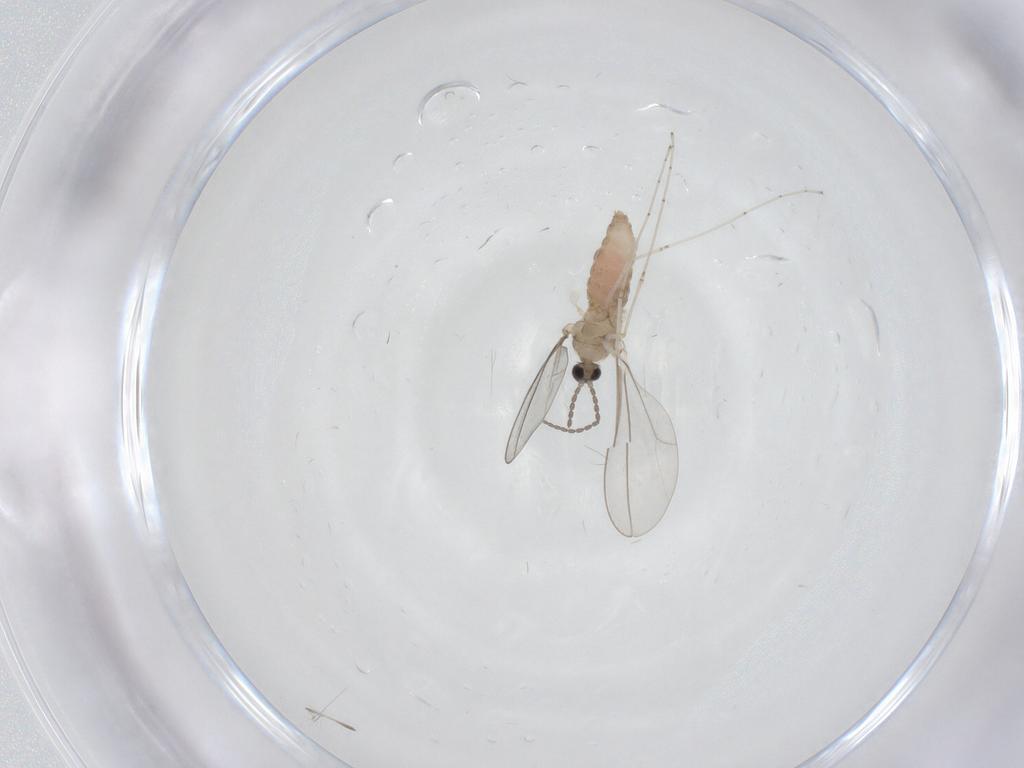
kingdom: Animalia
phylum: Arthropoda
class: Insecta
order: Diptera
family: Cecidomyiidae
